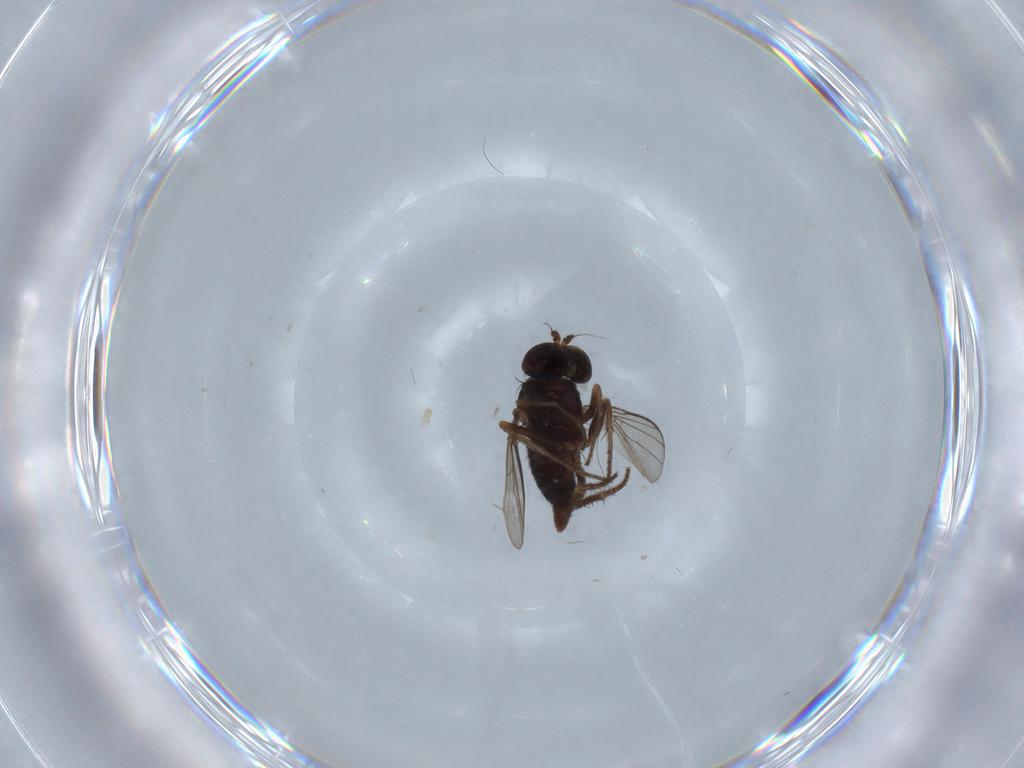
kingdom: Animalia
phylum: Arthropoda
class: Insecta
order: Diptera
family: Chironomidae
